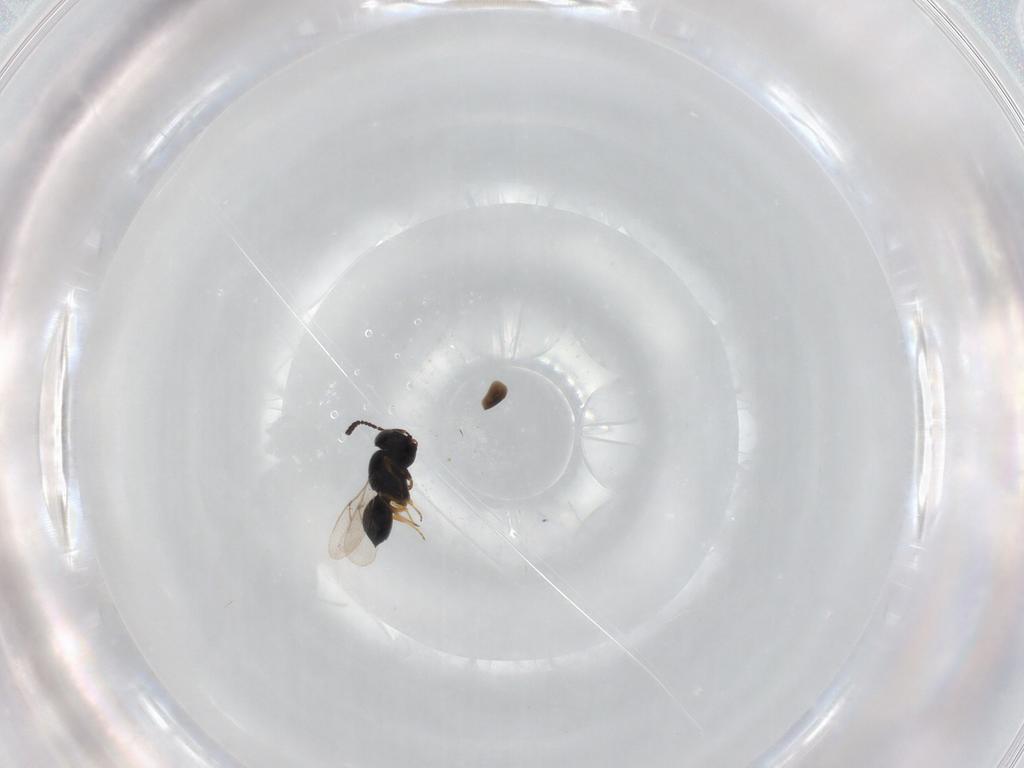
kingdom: Animalia
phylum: Arthropoda
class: Insecta
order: Hymenoptera
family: Scelionidae
